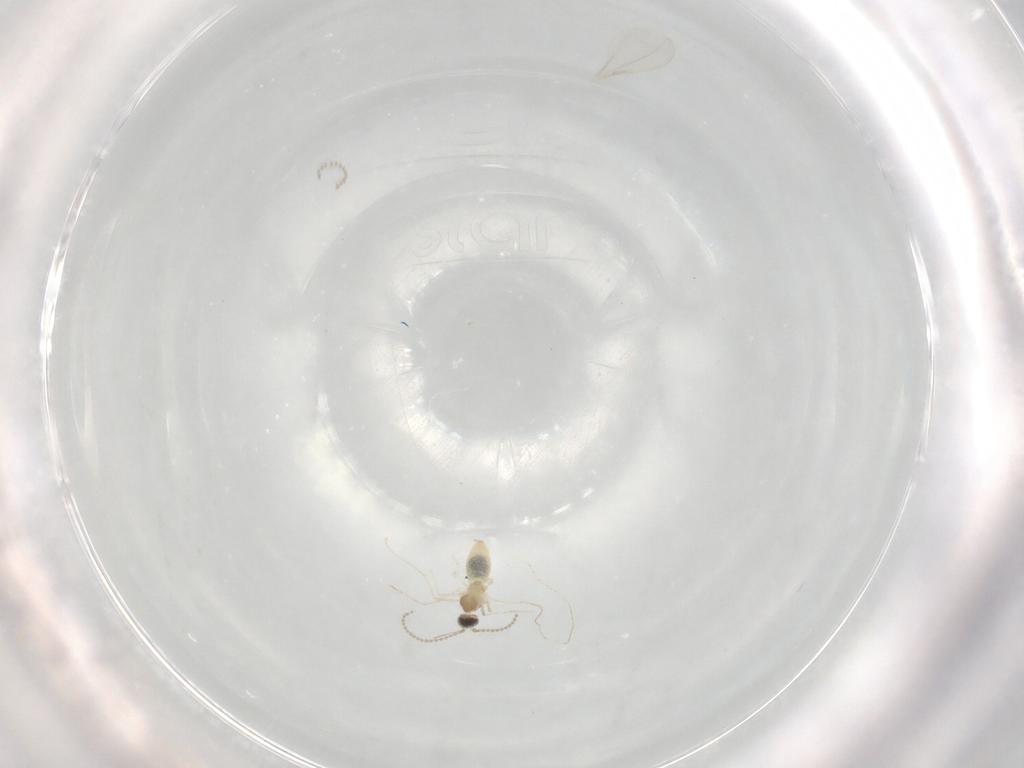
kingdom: Animalia
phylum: Arthropoda
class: Insecta
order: Diptera
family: Cecidomyiidae
